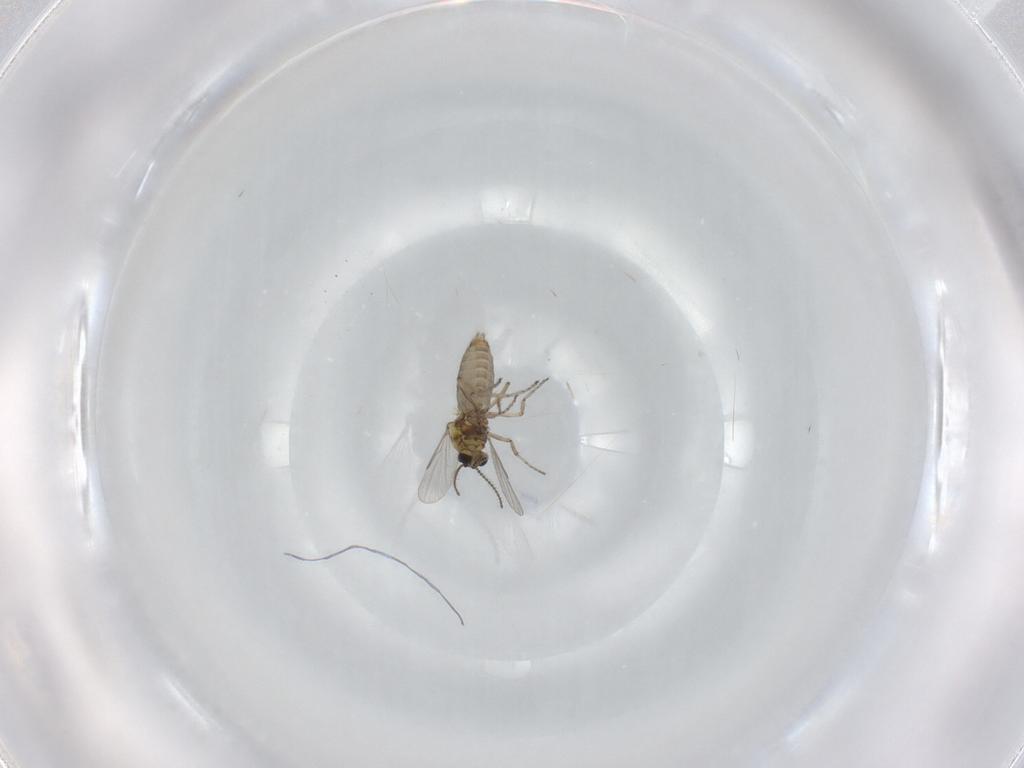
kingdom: Animalia
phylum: Arthropoda
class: Insecta
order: Diptera
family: Cecidomyiidae
